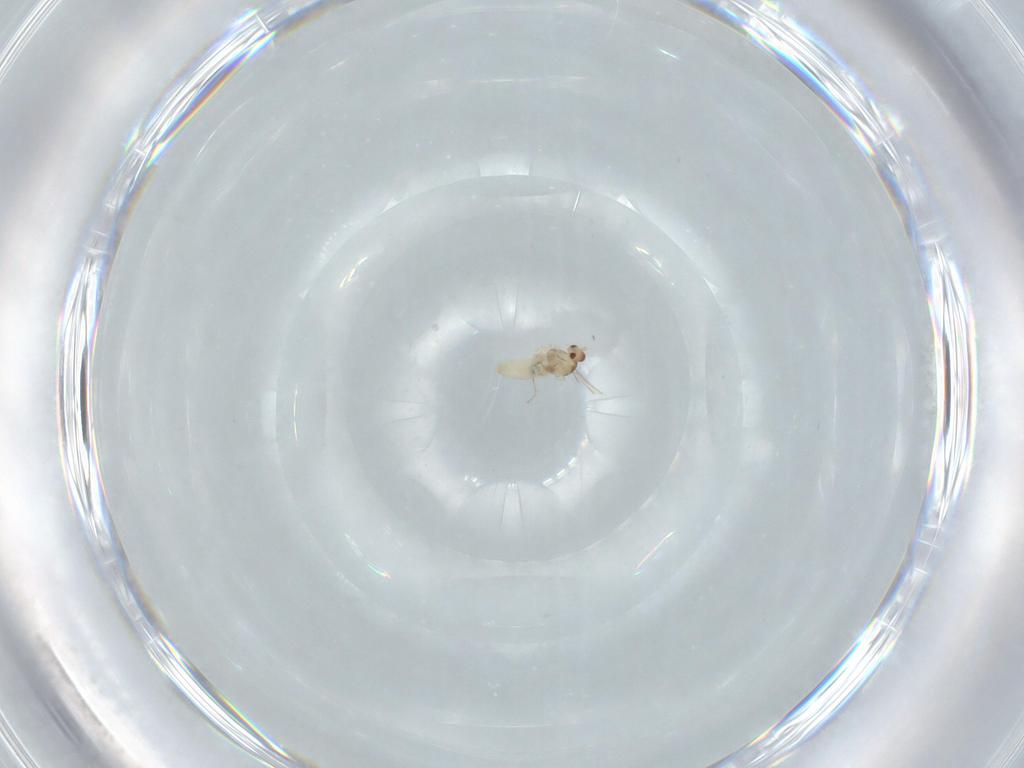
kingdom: Animalia
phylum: Arthropoda
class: Insecta
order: Diptera
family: Cecidomyiidae
